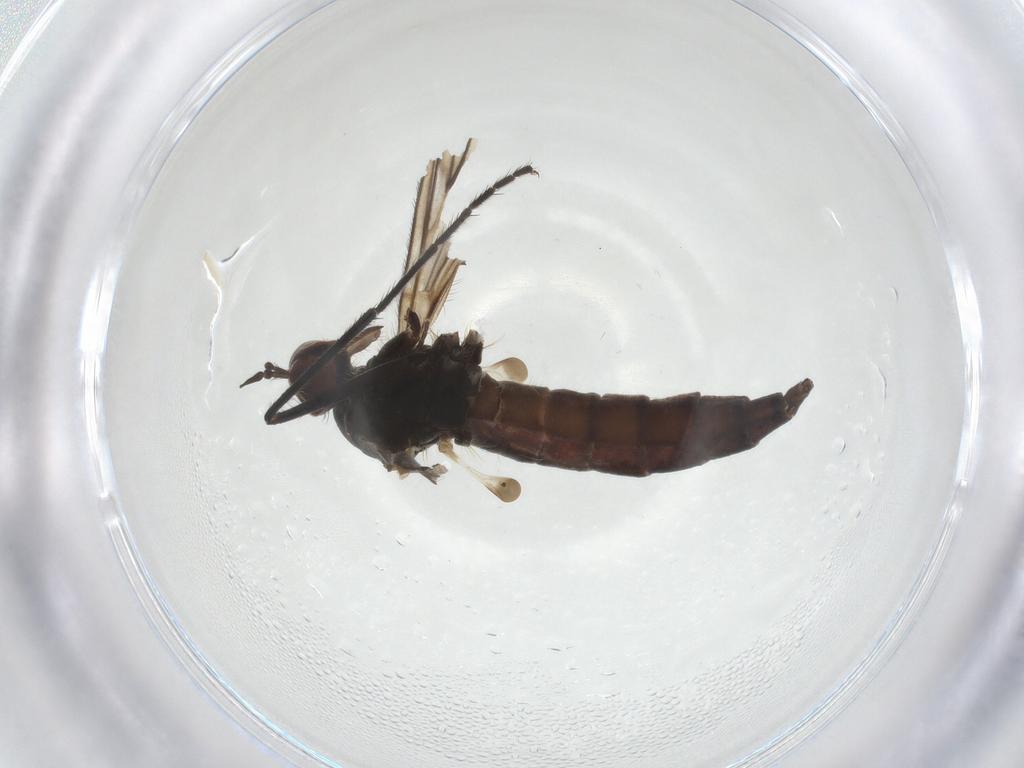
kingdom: Animalia
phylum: Arthropoda
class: Insecta
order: Diptera
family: Empididae
